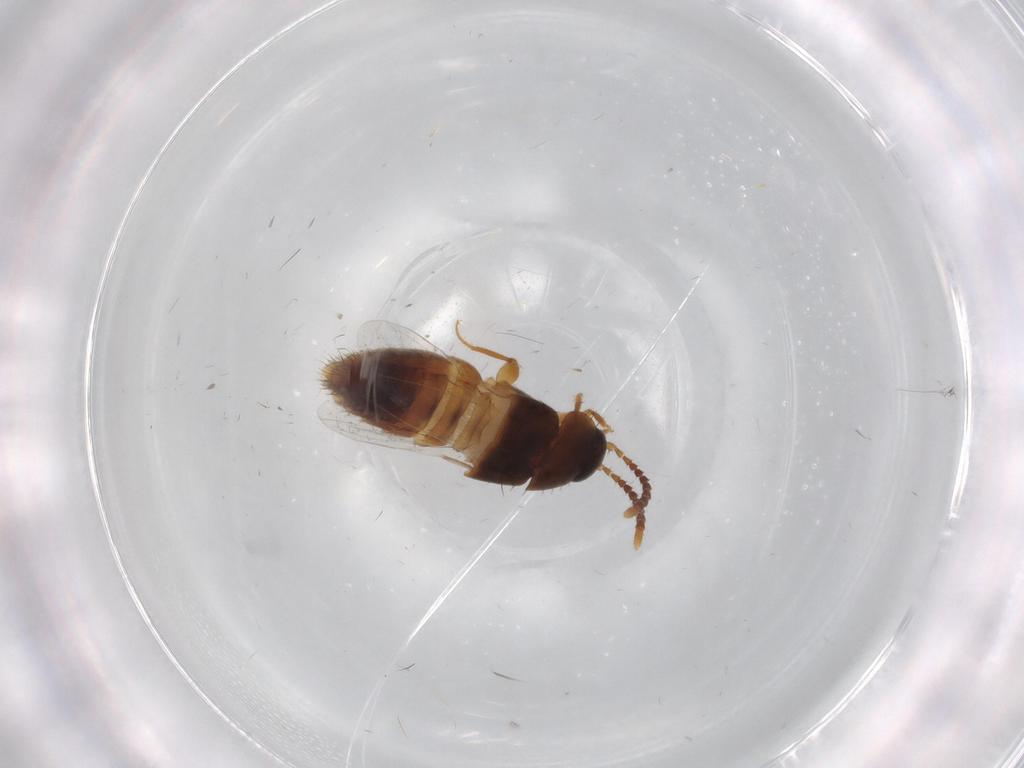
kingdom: Animalia
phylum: Arthropoda
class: Insecta
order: Coleoptera
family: Staphylinidae
